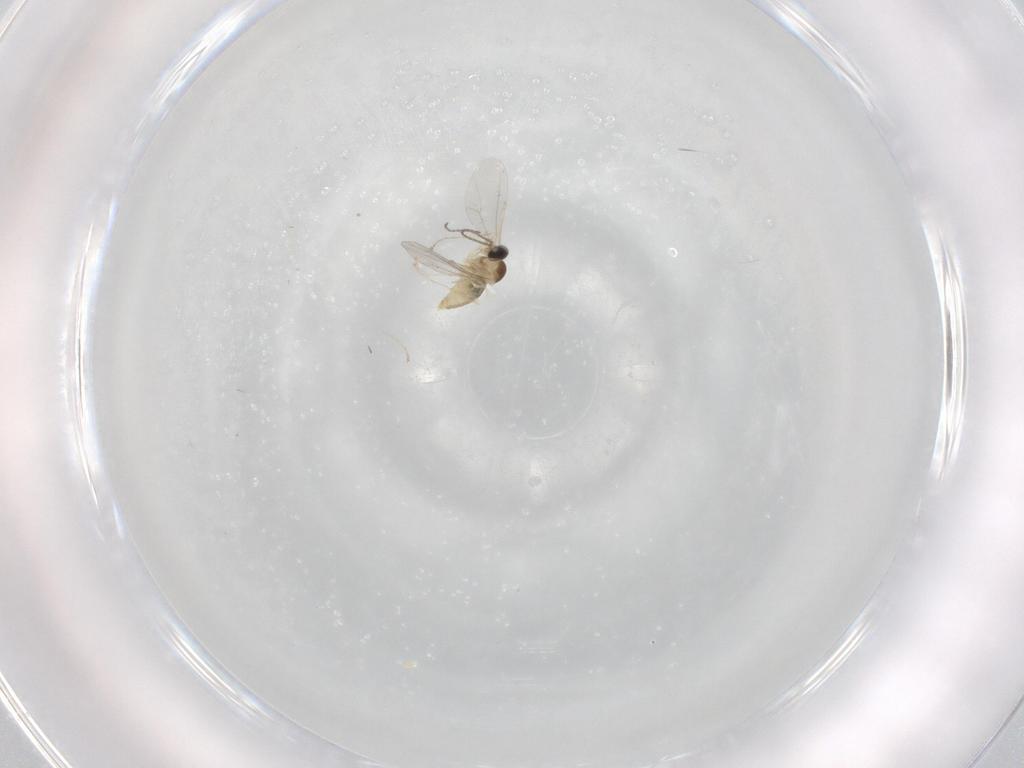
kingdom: Animalia
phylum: Arthropoda
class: Insecta
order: Diptera
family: Cecidomyiidae
